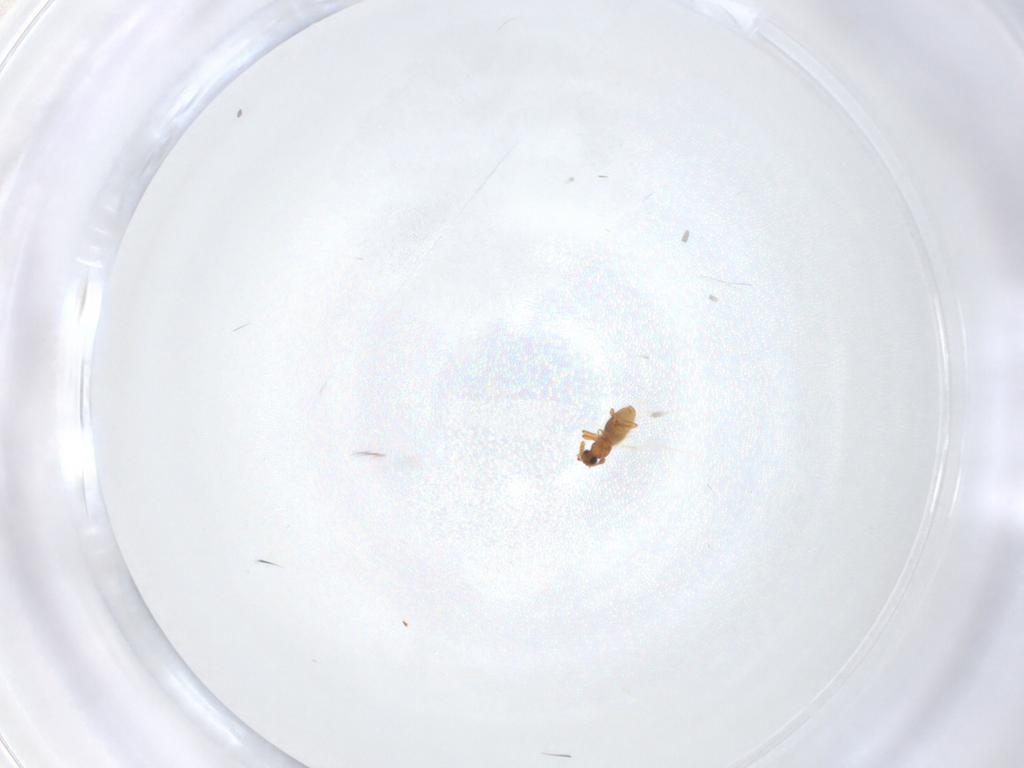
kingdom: Animalia
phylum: Arthropoda
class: Insecta
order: Coleoptera
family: Staphylinidae
